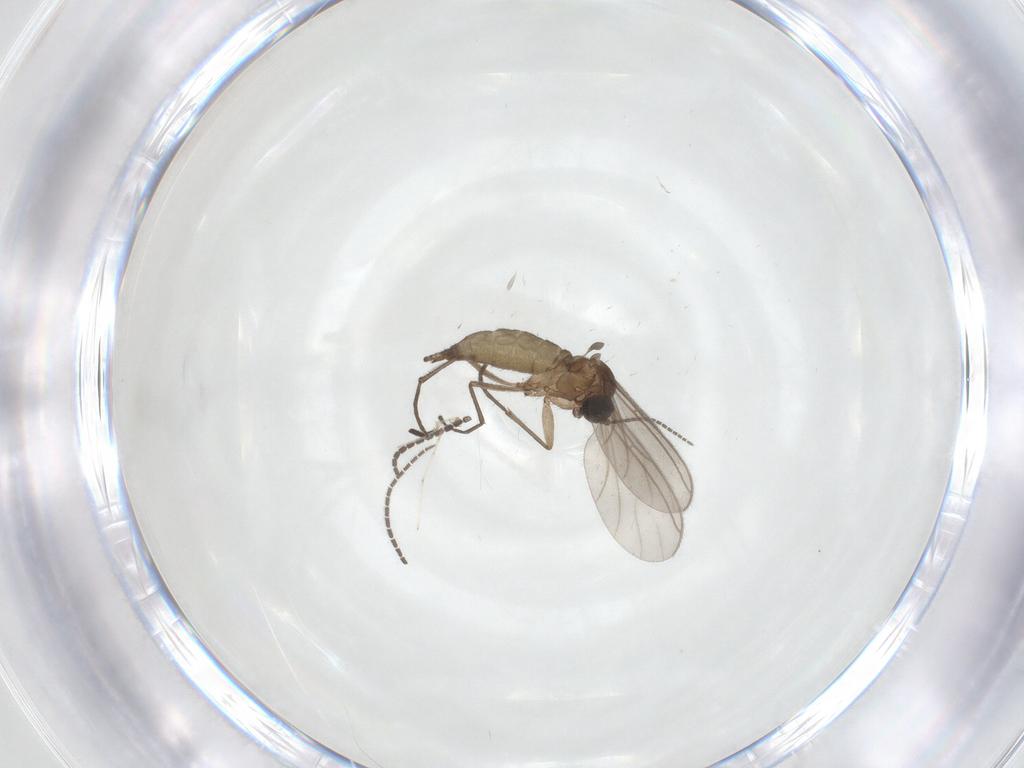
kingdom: Animalia
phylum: Arthropoda
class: Insecta
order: Diptera
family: Sciaridae
